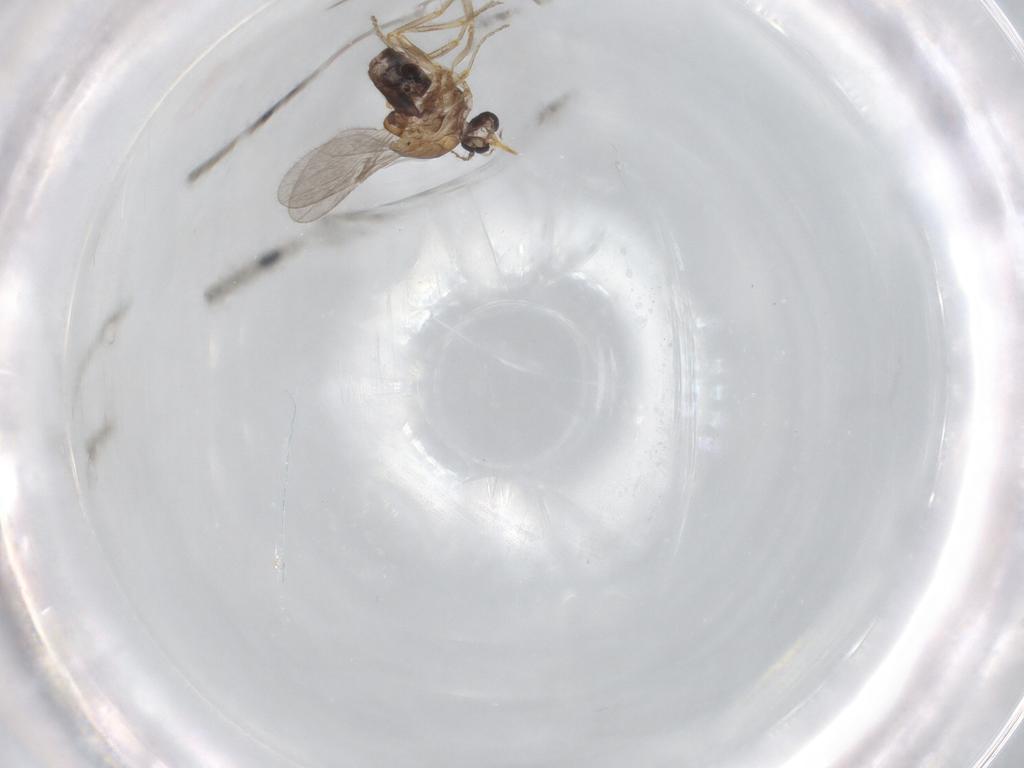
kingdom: Animalia
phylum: Arthropoda
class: Insecta
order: Diptera
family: Ceratopogonidae
